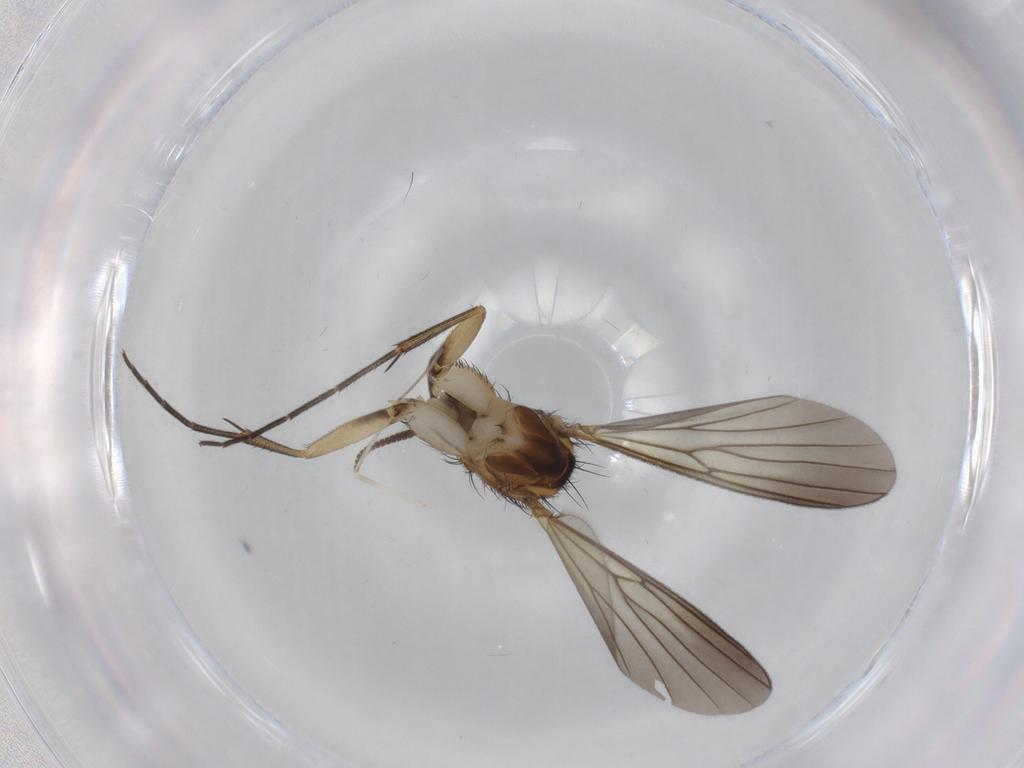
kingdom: Animalia
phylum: Arthropoda
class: Insecta
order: Diptera
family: Mycetophilidae
